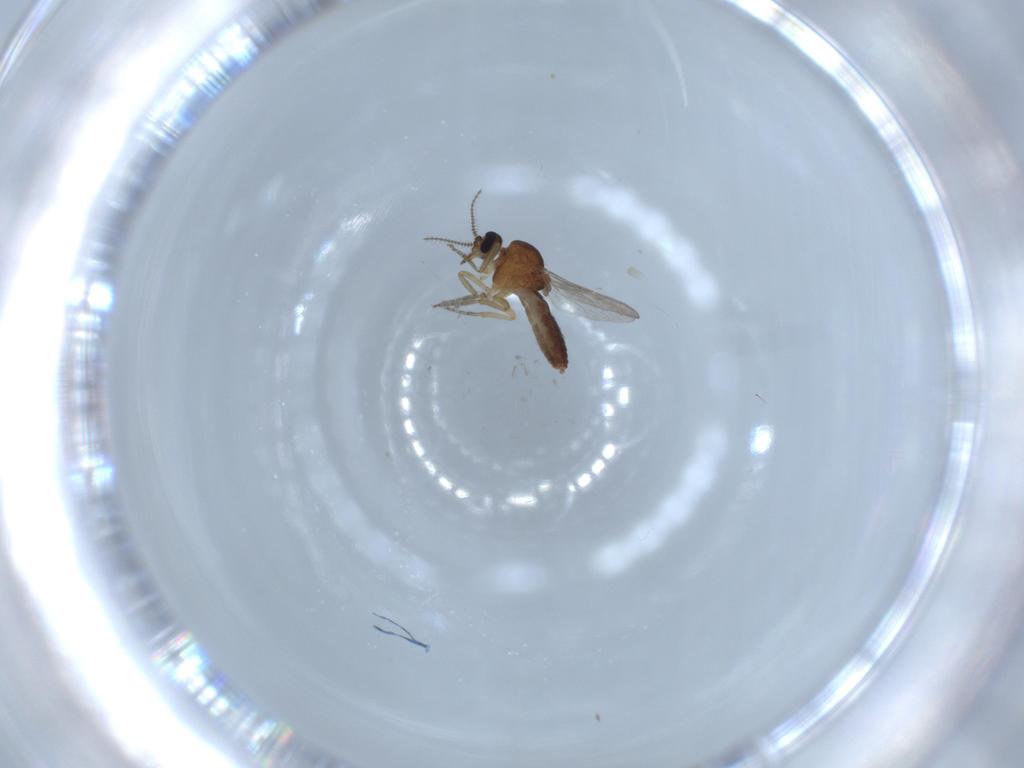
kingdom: Animalia
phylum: Arthropoda
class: Insecta
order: Diptera
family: Ceratopogonidae
